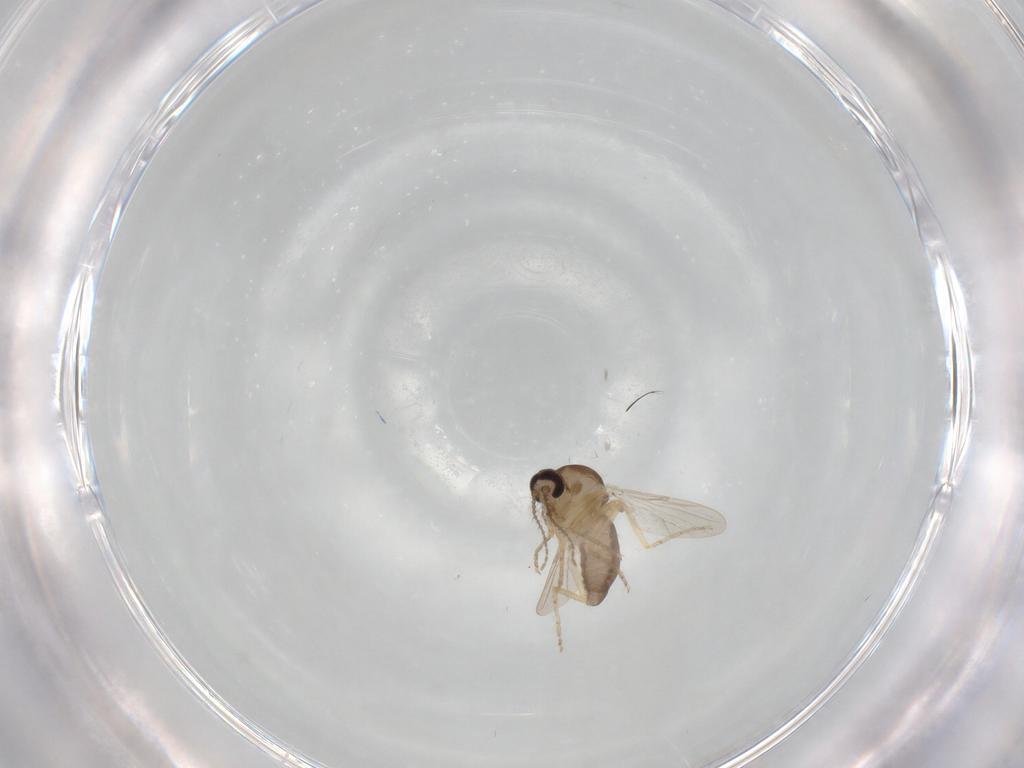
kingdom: Animalia
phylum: Arthropoda
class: Insecta
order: Diptera
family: Ceratopogonidae
